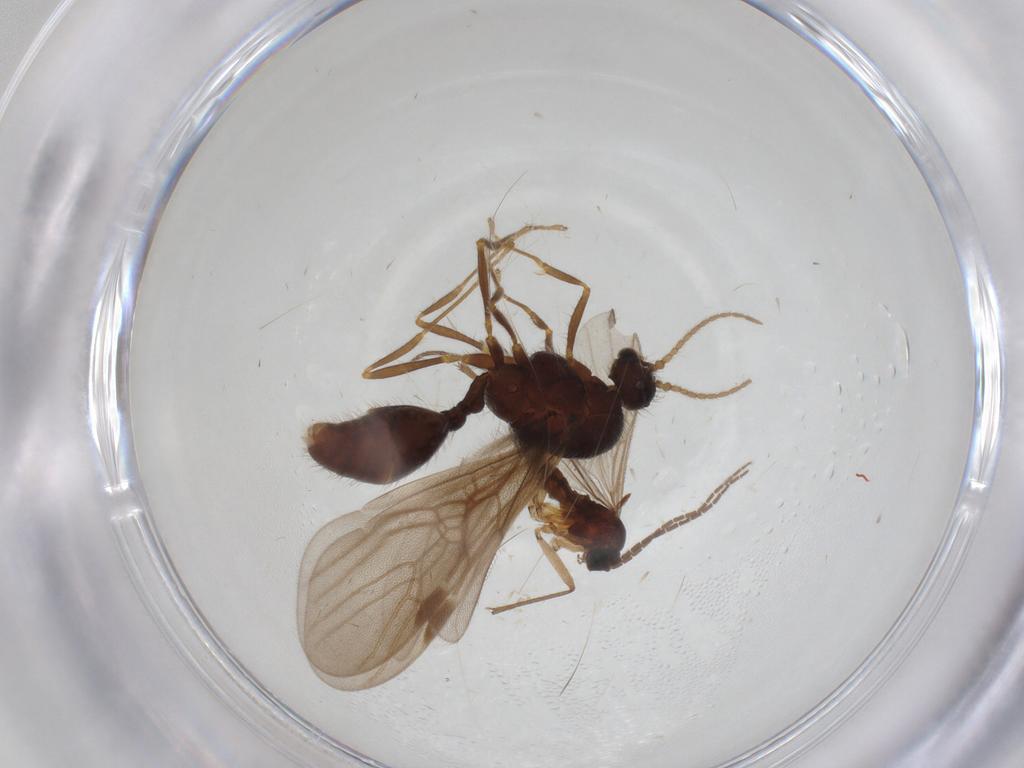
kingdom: Animalia
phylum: Arthropoda
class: Insecta
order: Diptera
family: Sciaridae
